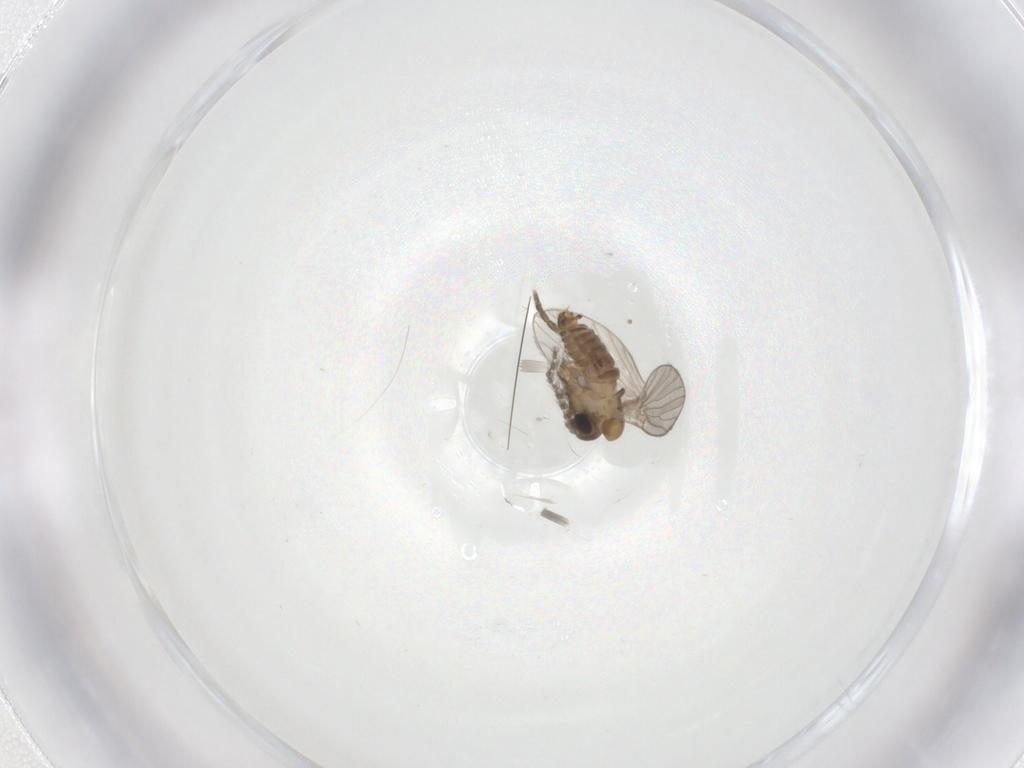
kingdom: Animalia
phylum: Arthropoda
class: Insecta
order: Diptera
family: Psychodidae
